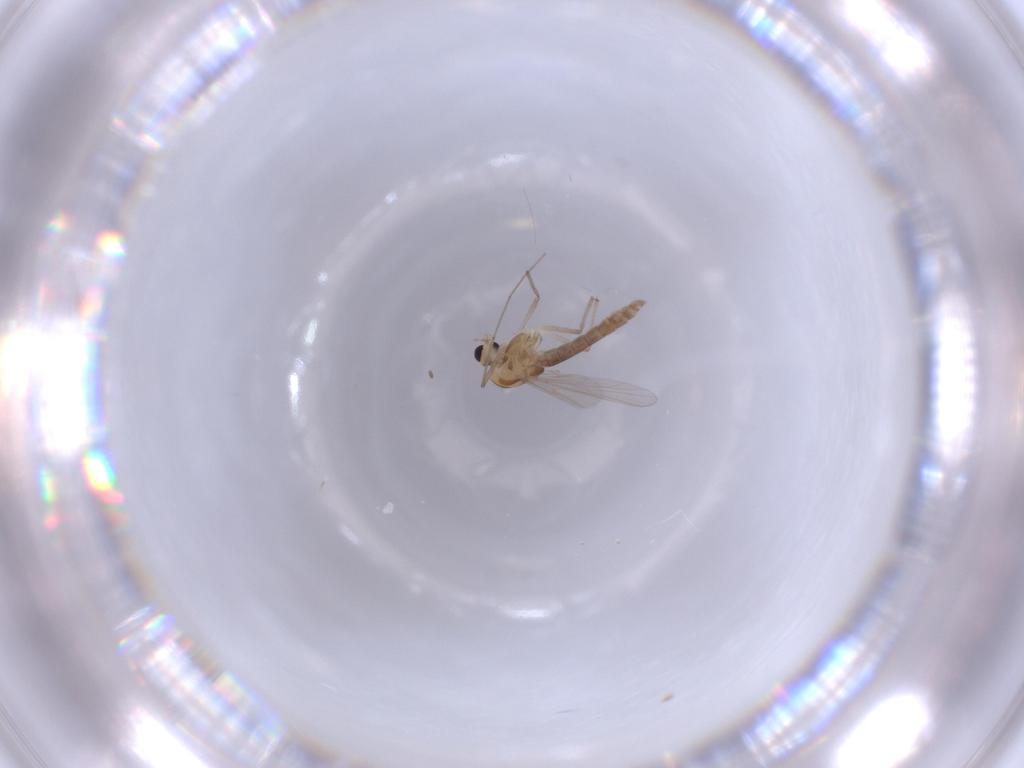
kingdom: Animalia
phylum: Arthropoda
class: Insecta
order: Diptera
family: Chironomidae
